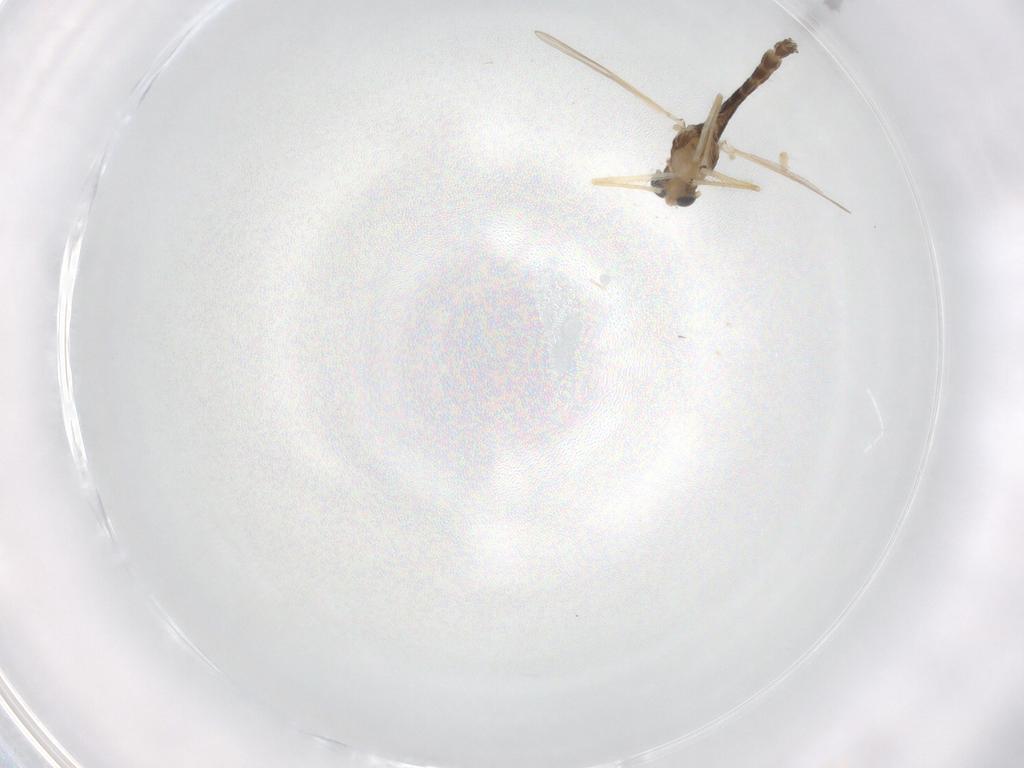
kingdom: Animalia
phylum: Arthropoda
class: Insecta
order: Diptera
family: Chironomidae
